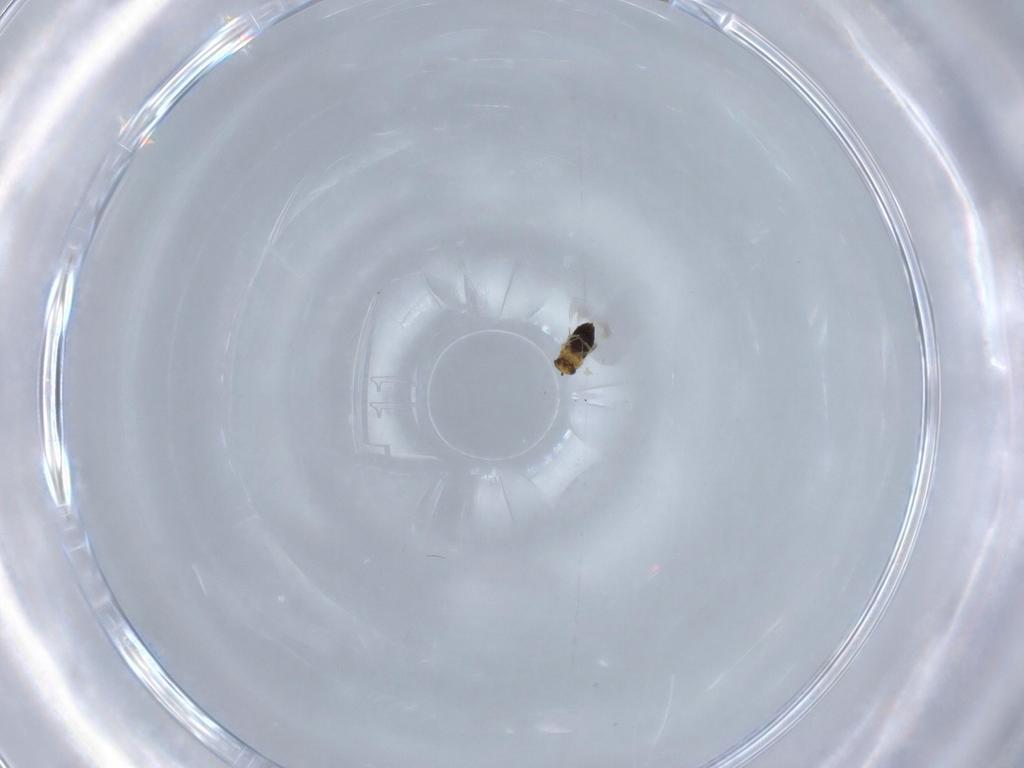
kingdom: Animalia
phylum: Arthropoda
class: Insecta
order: Hymenoptera
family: Signiphoridae
